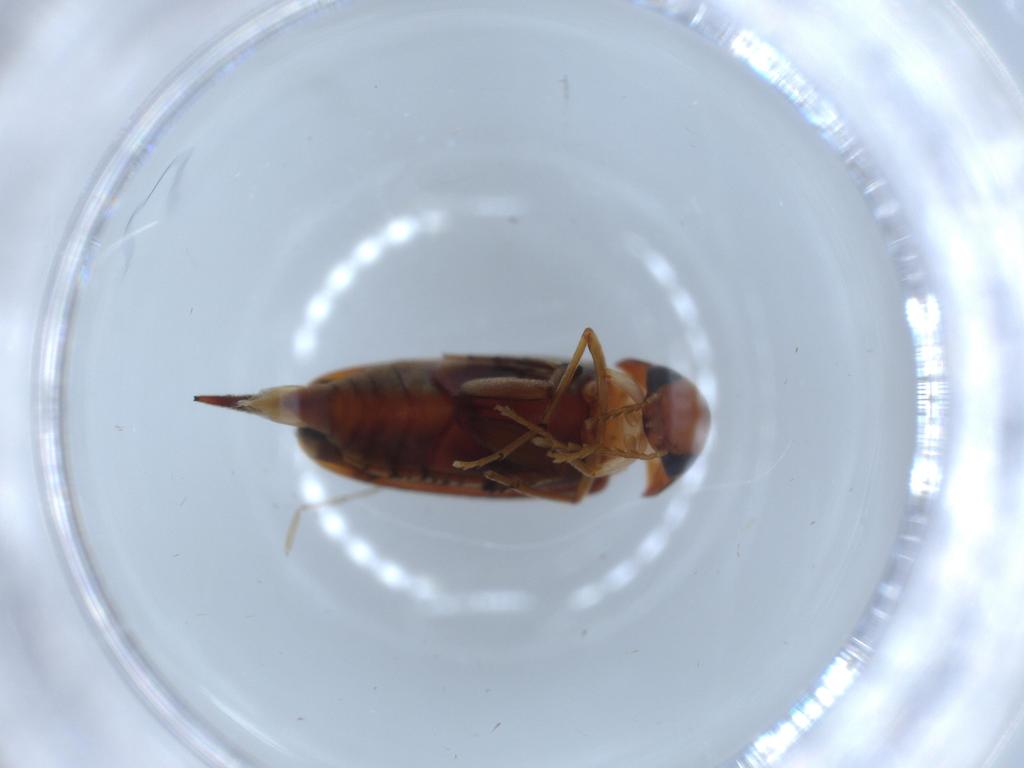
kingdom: Animalia
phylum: Arthropoda
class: Insecta
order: Coleoptera
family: Mordellidae
